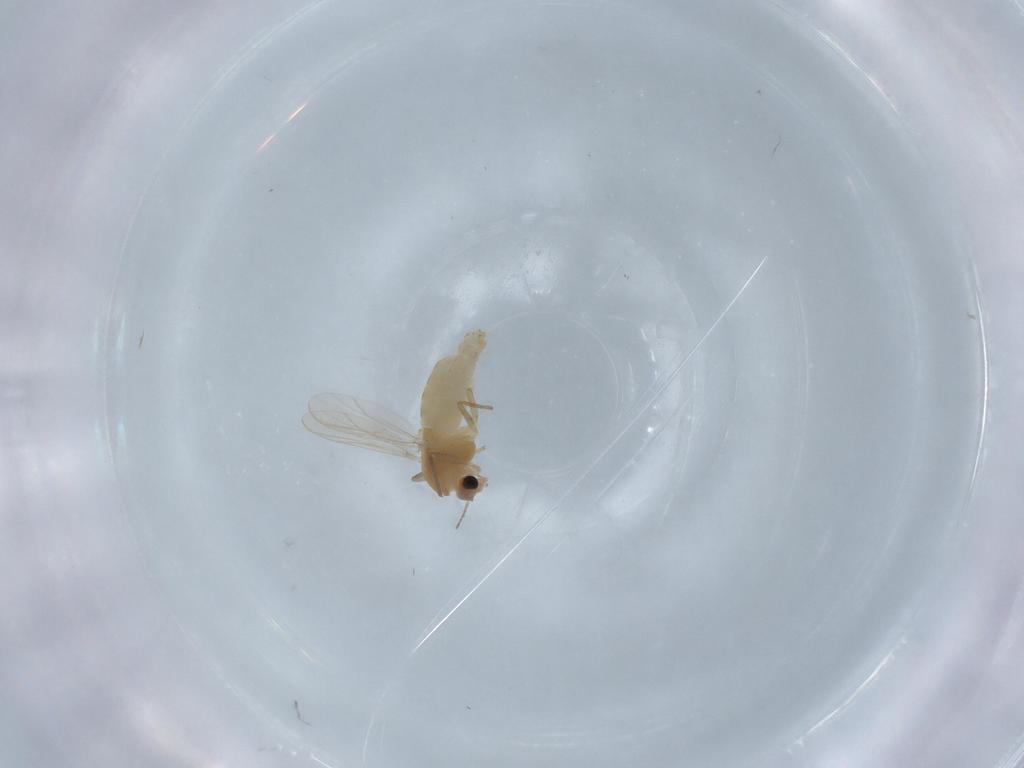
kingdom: Animalia
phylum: Arthropoda
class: Insecta
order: Diptera
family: Chironomidae
